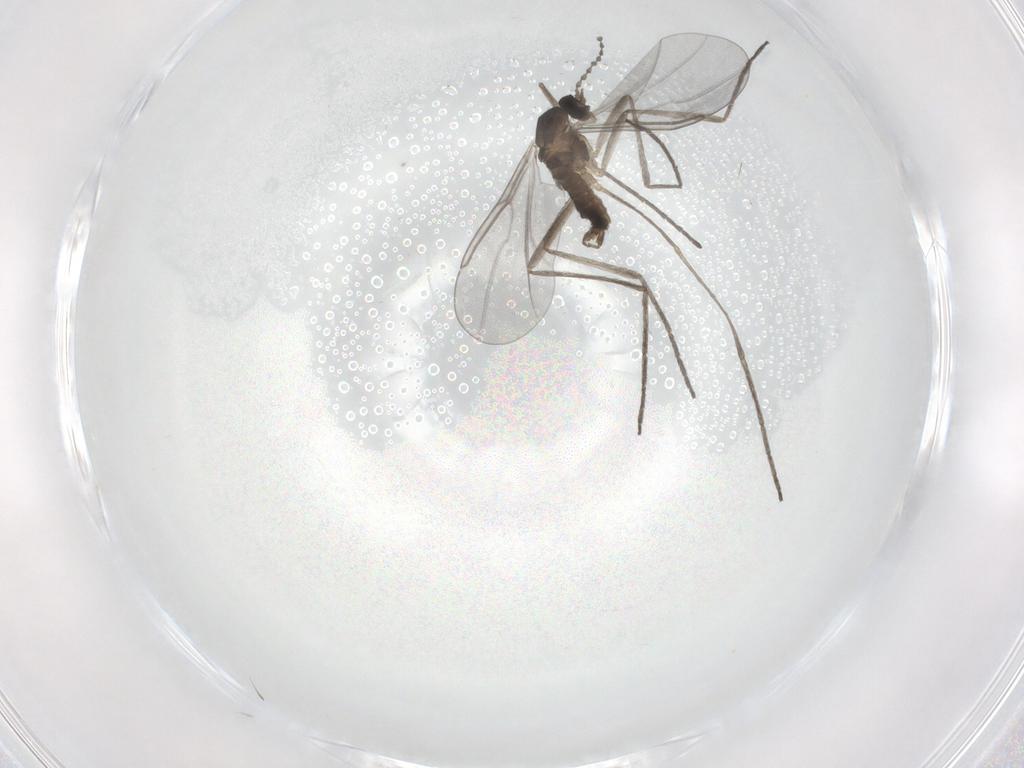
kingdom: Animalia
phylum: Arthropoda
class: Insecta
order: Diptera
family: Cecidomyiidae
